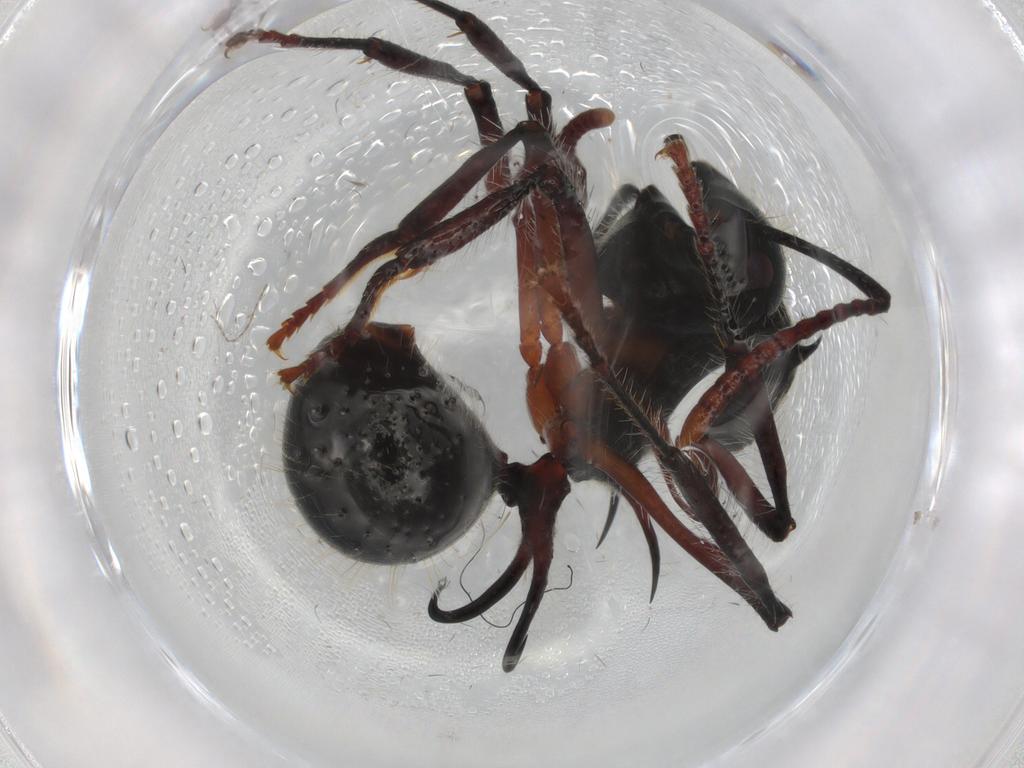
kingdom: Animalia
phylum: Arthropoda
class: Insecta
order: Hymenoptera
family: Formicidae
